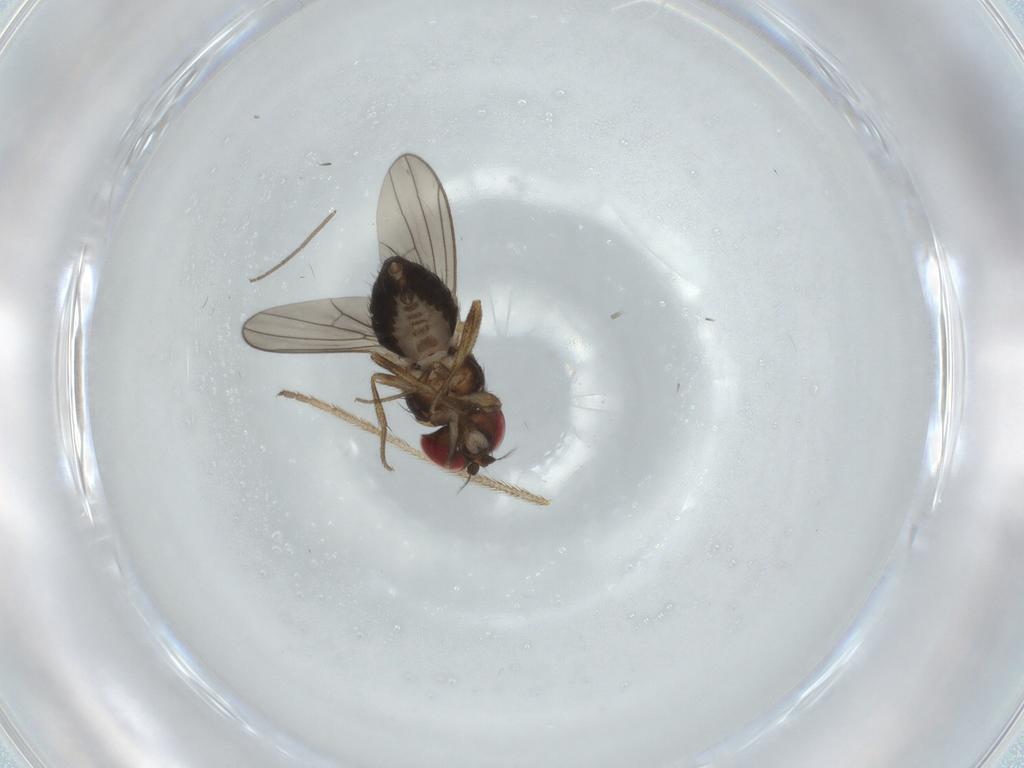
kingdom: Animalia
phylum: Arthropoda
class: Insecta
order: Diptera
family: Drosophilidae
